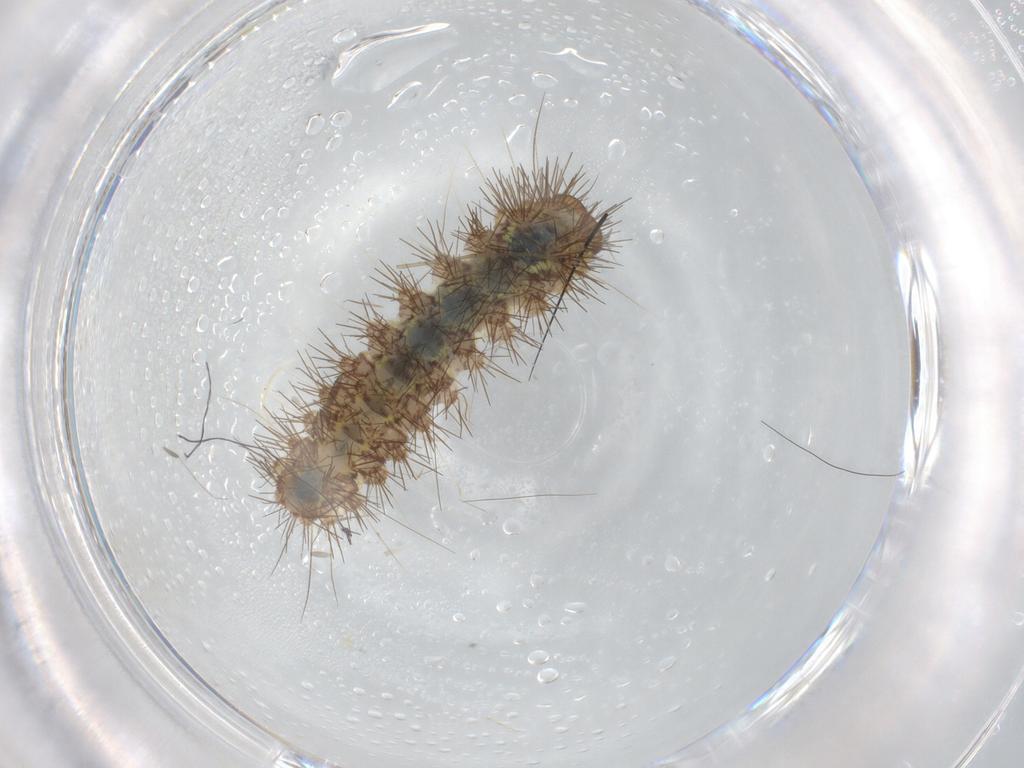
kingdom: Animalia
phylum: Arthropoda
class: Insecta
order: Lepidoptera
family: Erebidae
